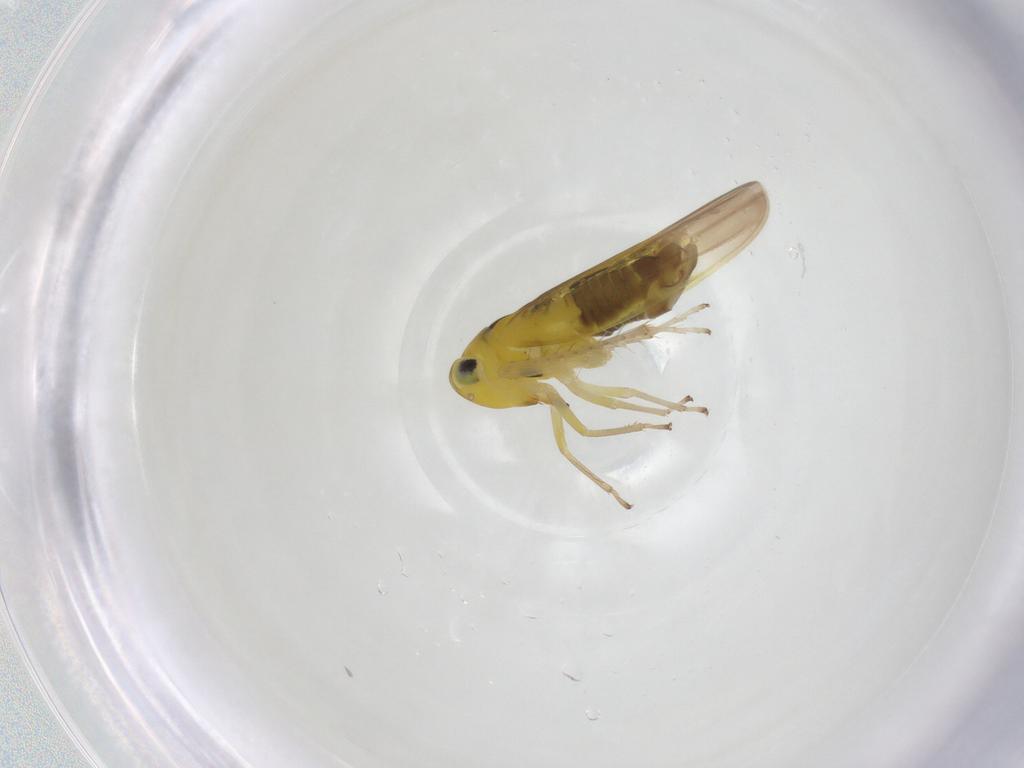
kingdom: Animalia
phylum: Arthropoda
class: Insecta
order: Hemiptera
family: Cicadellidae
